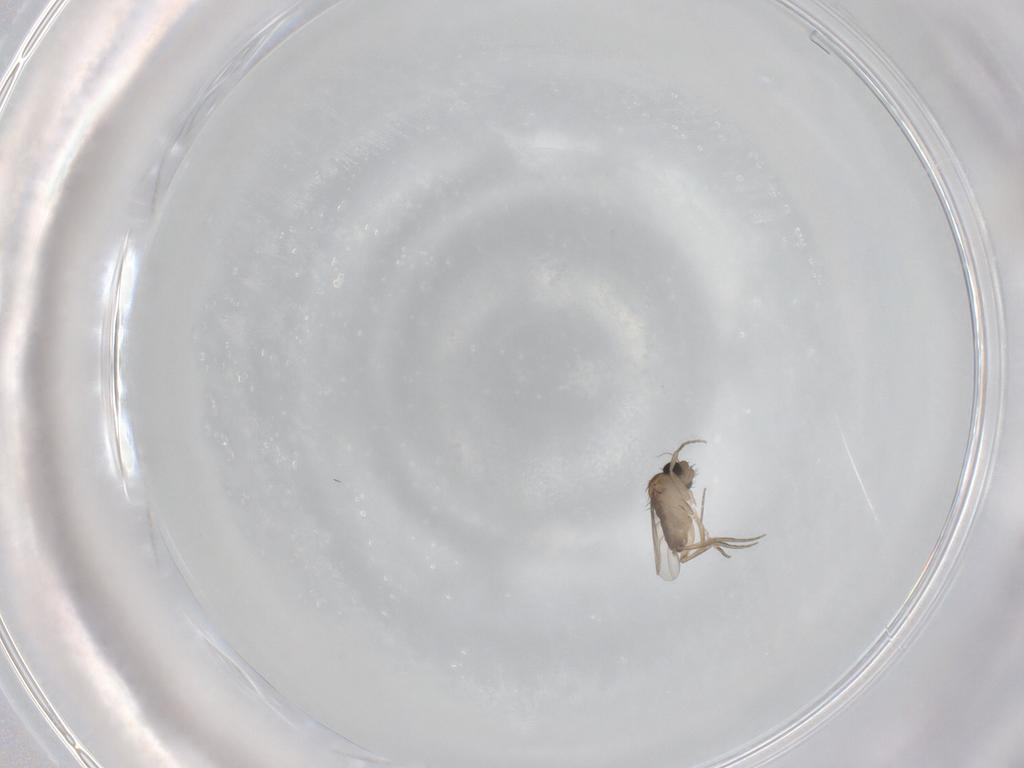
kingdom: Animalia
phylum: Arthropoda
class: Insecta
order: Diptera
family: Phoridae
